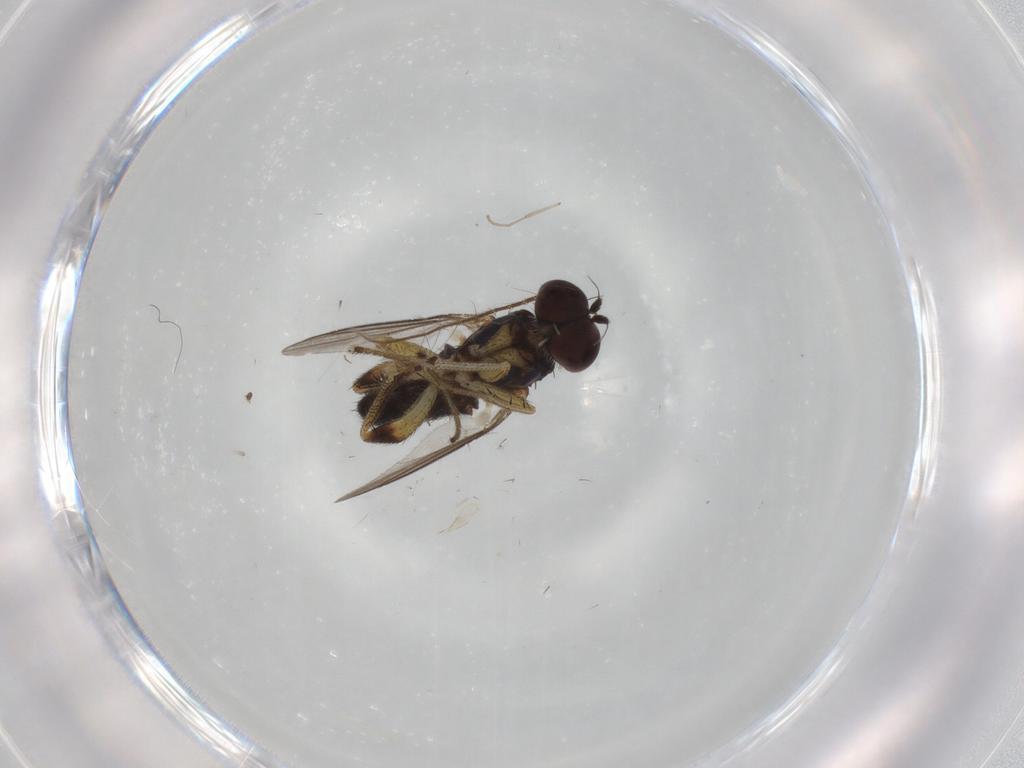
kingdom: Animalia
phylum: Arthropoda
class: Insecta
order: Diptera
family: Cecidomyiidae
